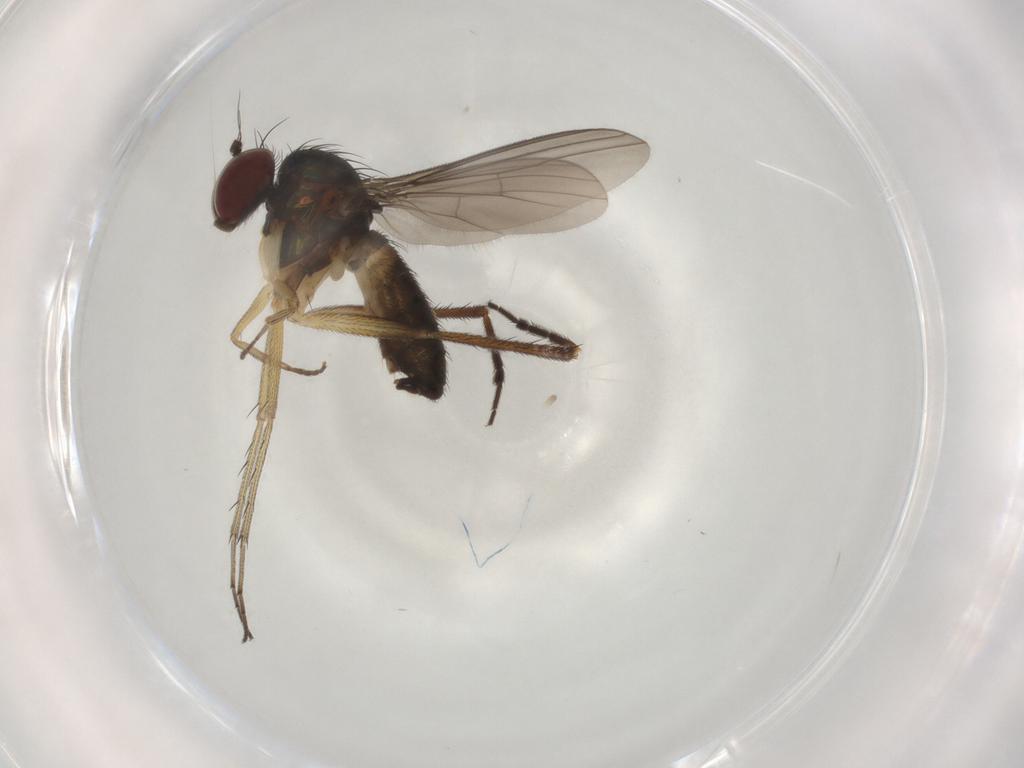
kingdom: Animalia
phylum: Arthropoda
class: Insecta
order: Diptera
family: Dolichopodidae
